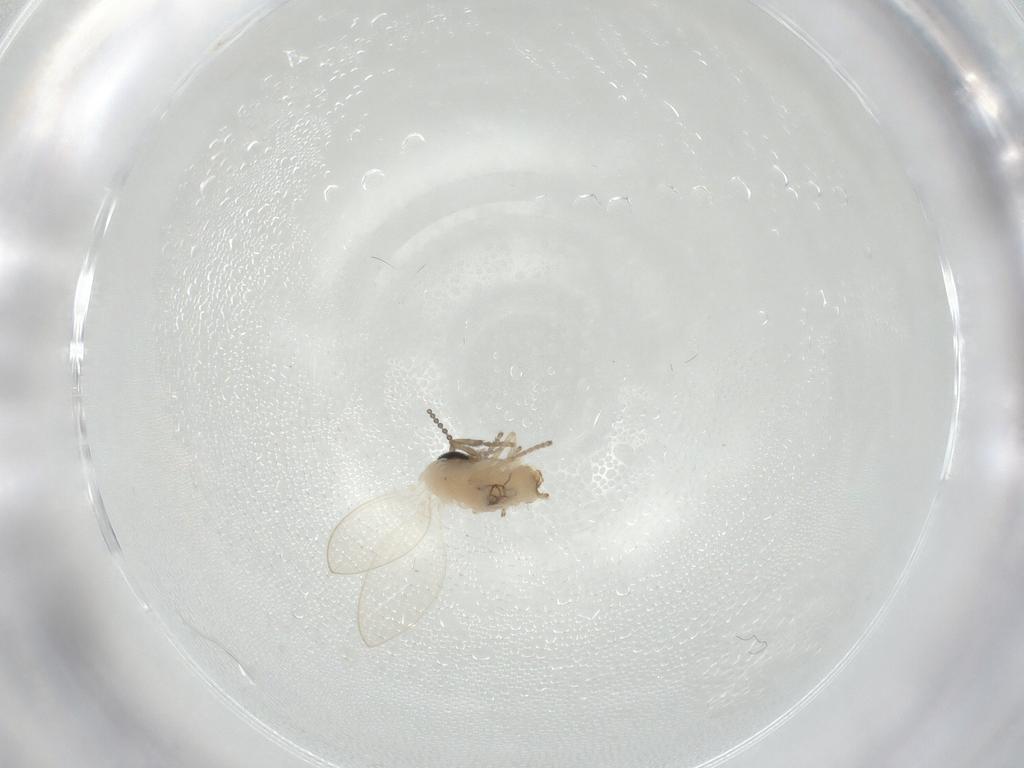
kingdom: Animalia
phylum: Arthropoda
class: Insecta
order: Diptera
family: Psychodidae
